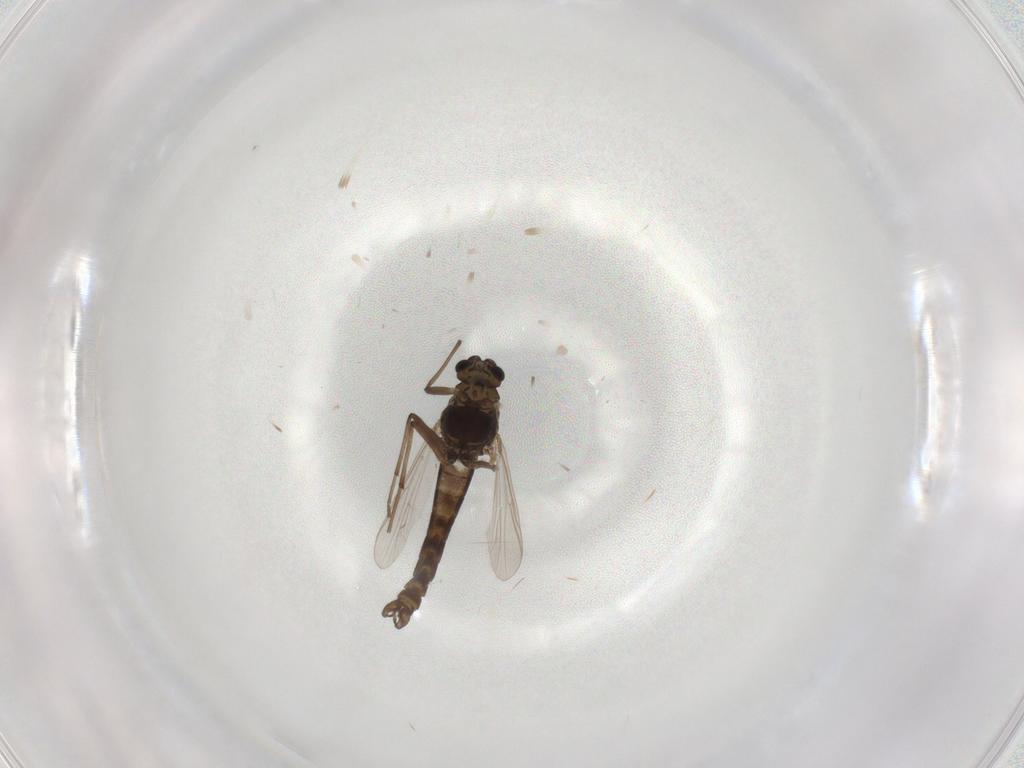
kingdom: Animalia
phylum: Arthropoda
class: Insecta
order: Diptera
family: Chironomidae
